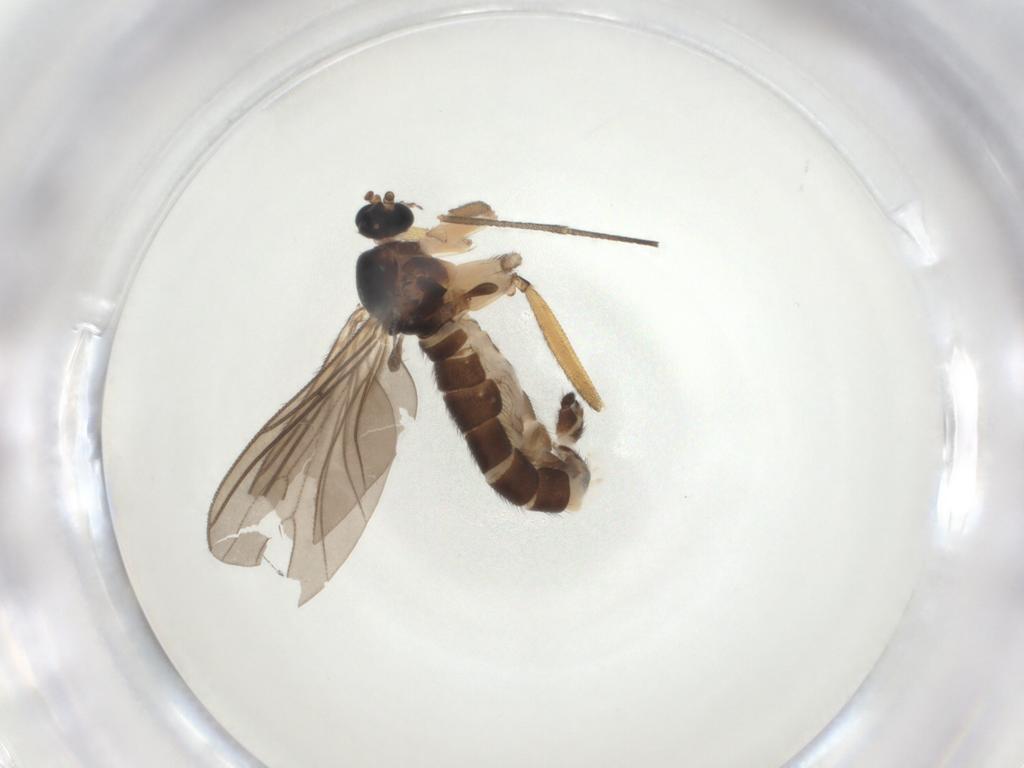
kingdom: Animalia
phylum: Arthropoda
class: Insecta
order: Diptera
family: Sciaridae
